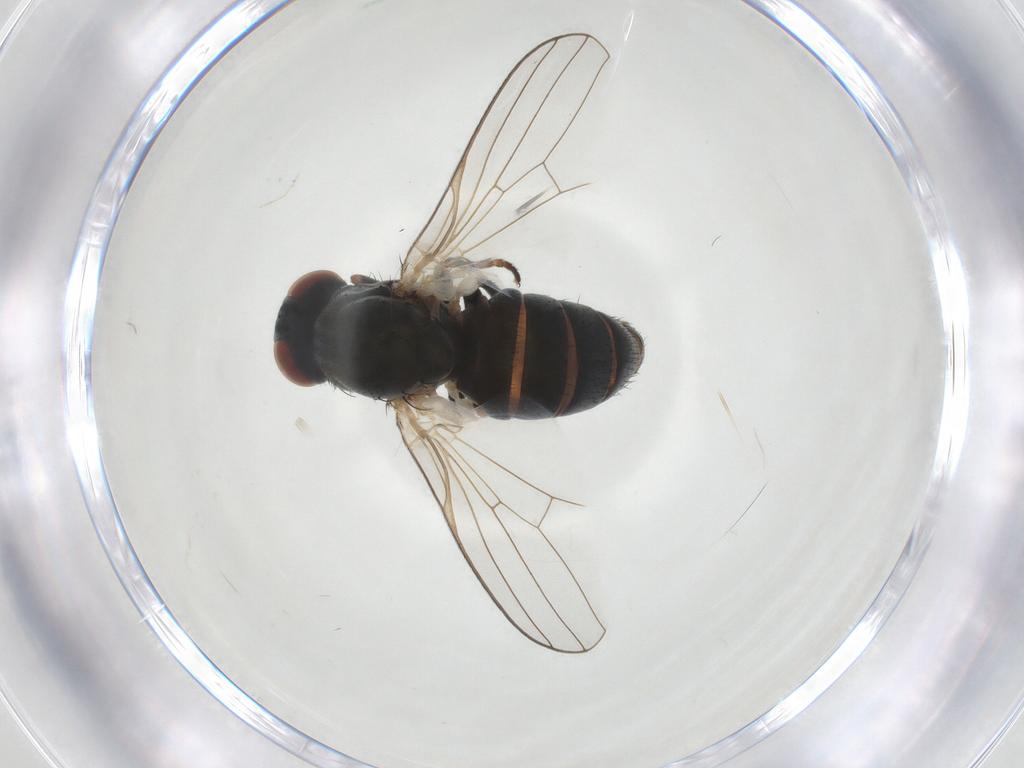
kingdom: Animalia
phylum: Arthropoda
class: Insecta
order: Diptera
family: Chamaemyiidae
